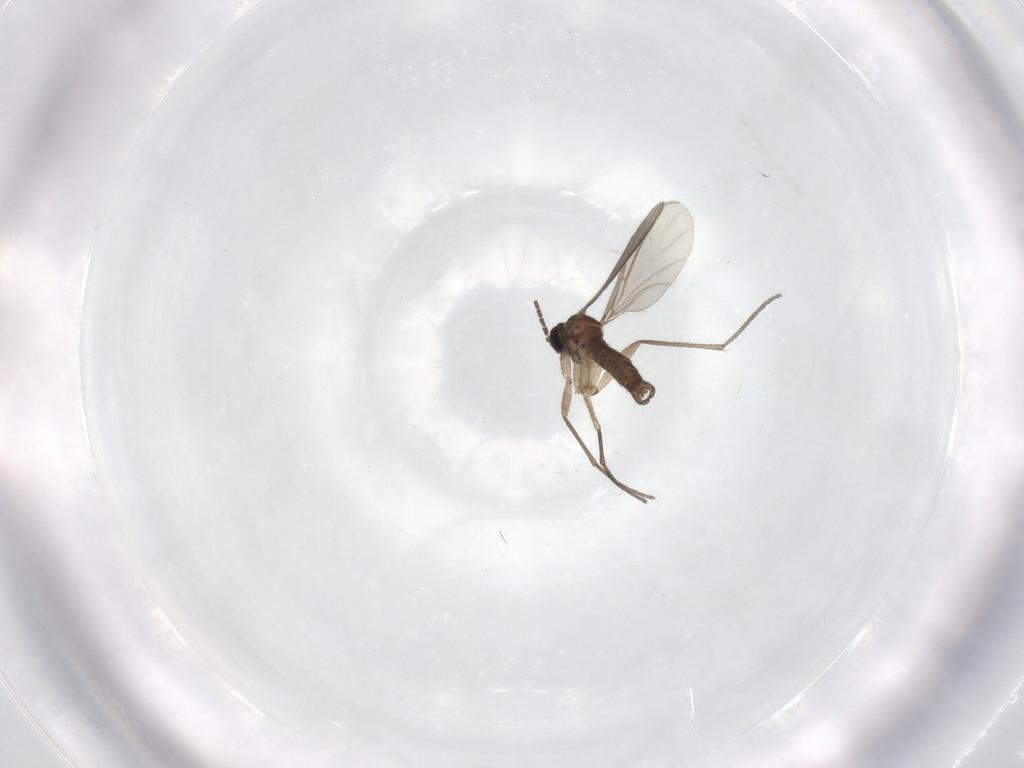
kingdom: Animalia
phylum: Arthropoda
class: Insecta
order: Diptera
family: Sciaridae
